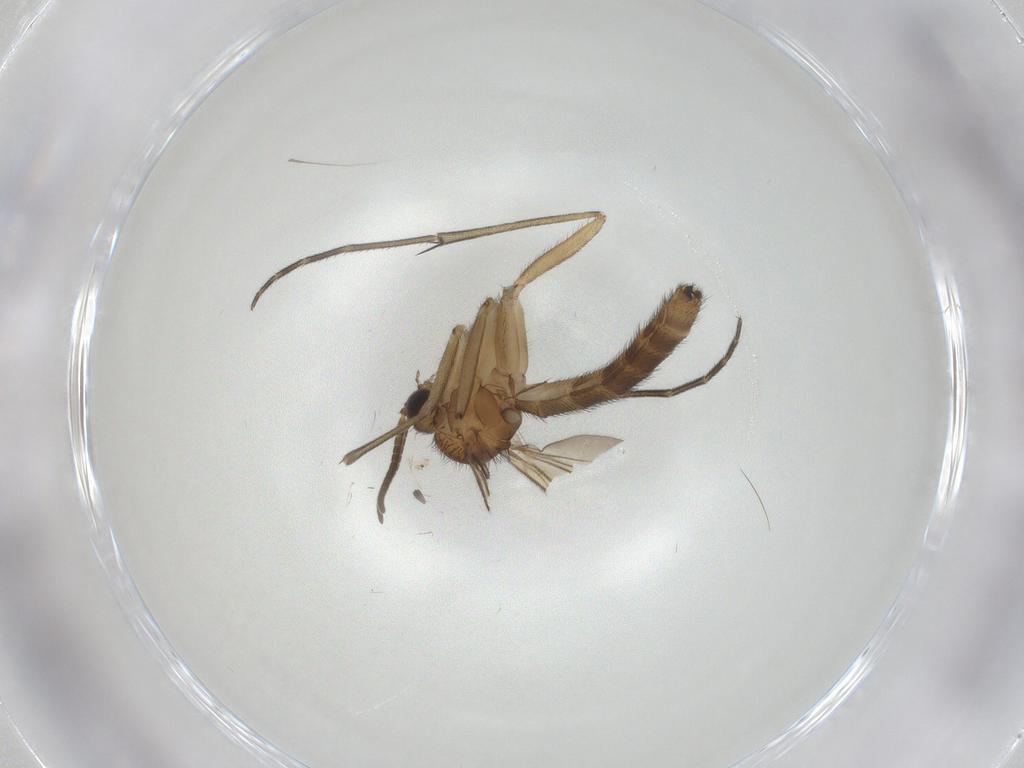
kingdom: Animalia
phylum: Arthropoda
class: Insecta
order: Diptera
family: Keroplatidae
